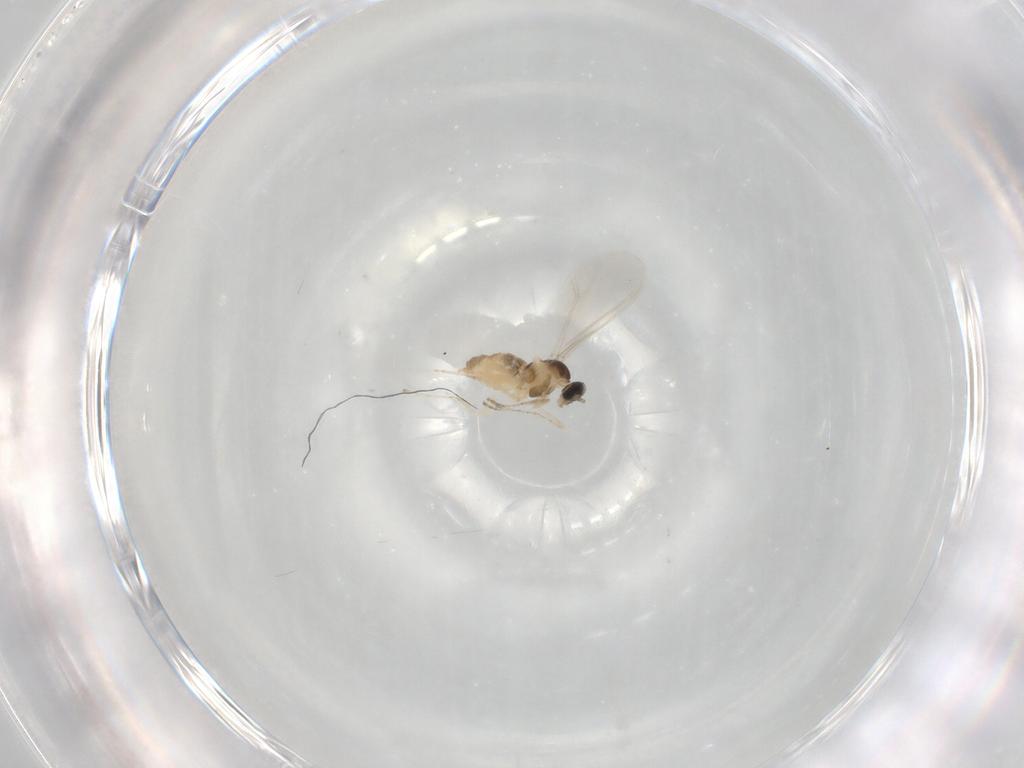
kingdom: Animalia
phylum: Arthropoda
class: Insecta
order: Diptera
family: Cecidomyiidae
